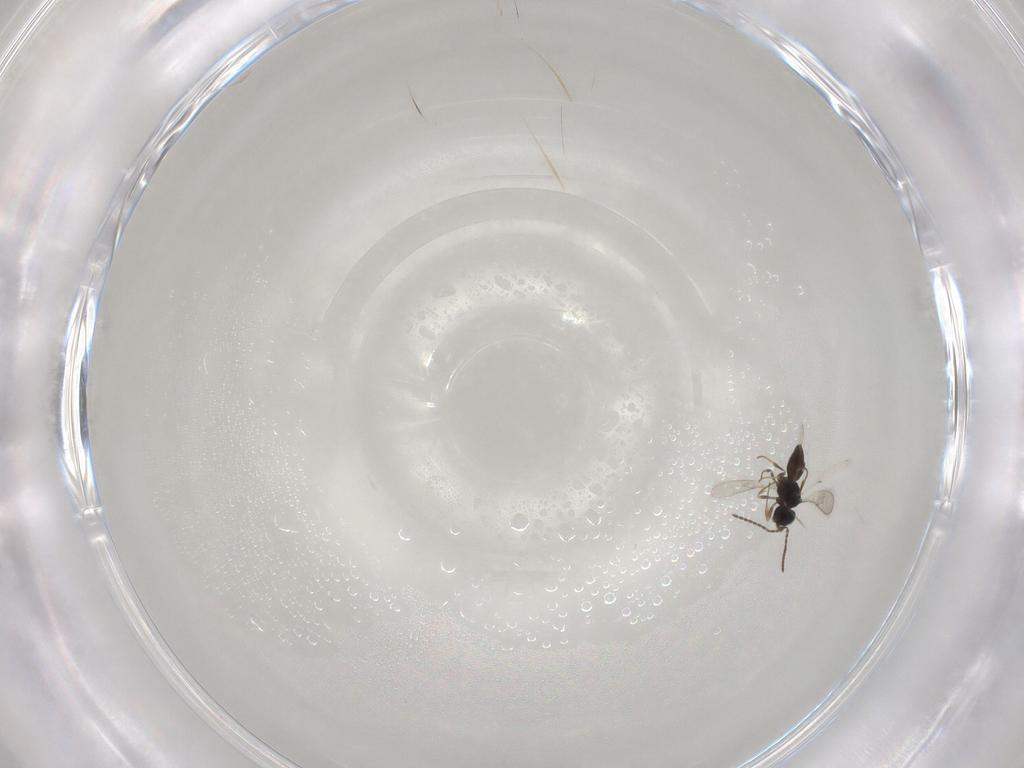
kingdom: Animalia
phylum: Arthropoda
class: Insecta
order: Hymenoptera
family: Scelionidae
